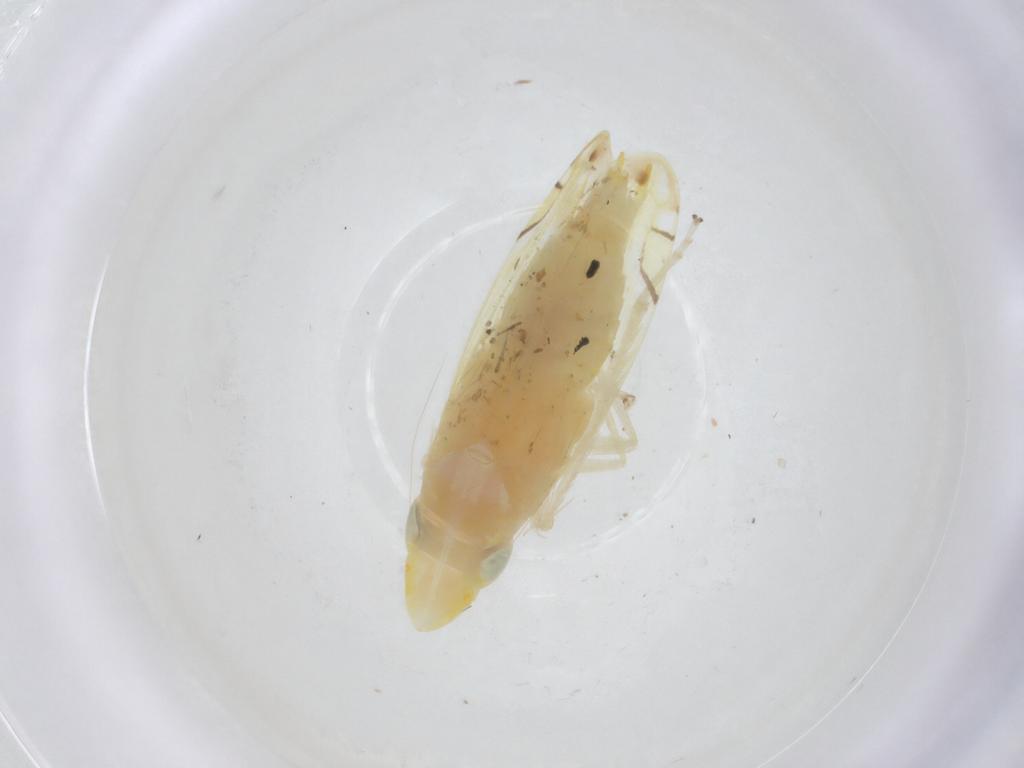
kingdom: Animalia
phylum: Arthropoda
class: Insecta
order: Hemiptera
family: Cicadellidae
